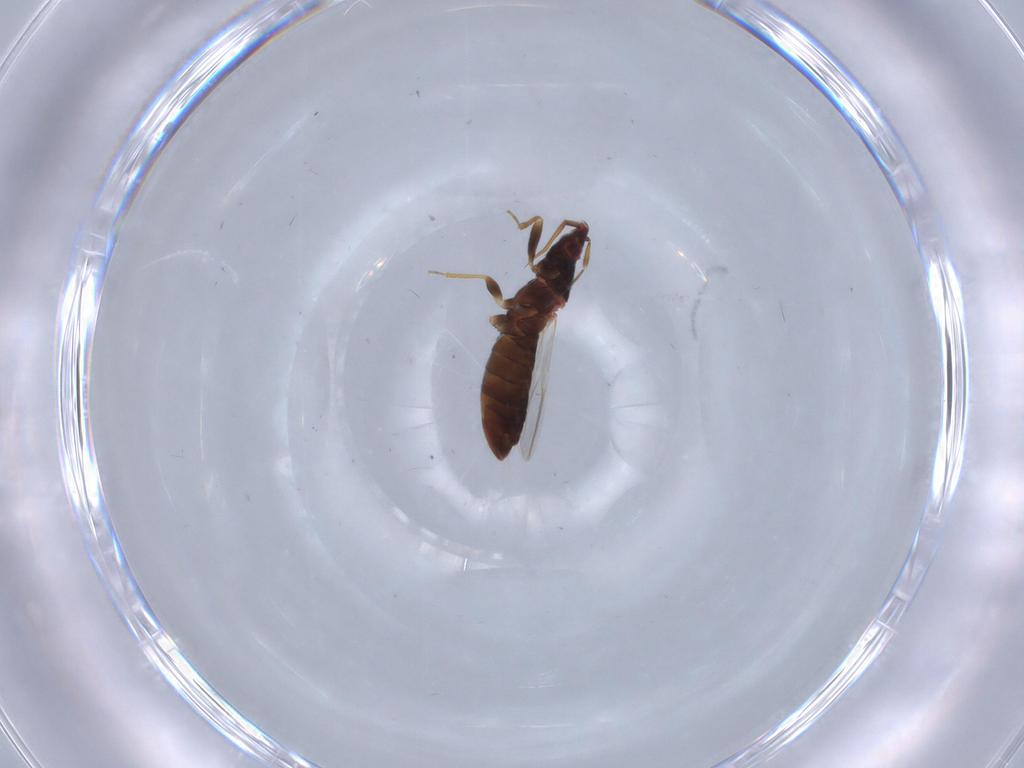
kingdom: Animalia
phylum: Arthropoda
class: Insecta
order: Hemiptera
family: Anthocoridae
